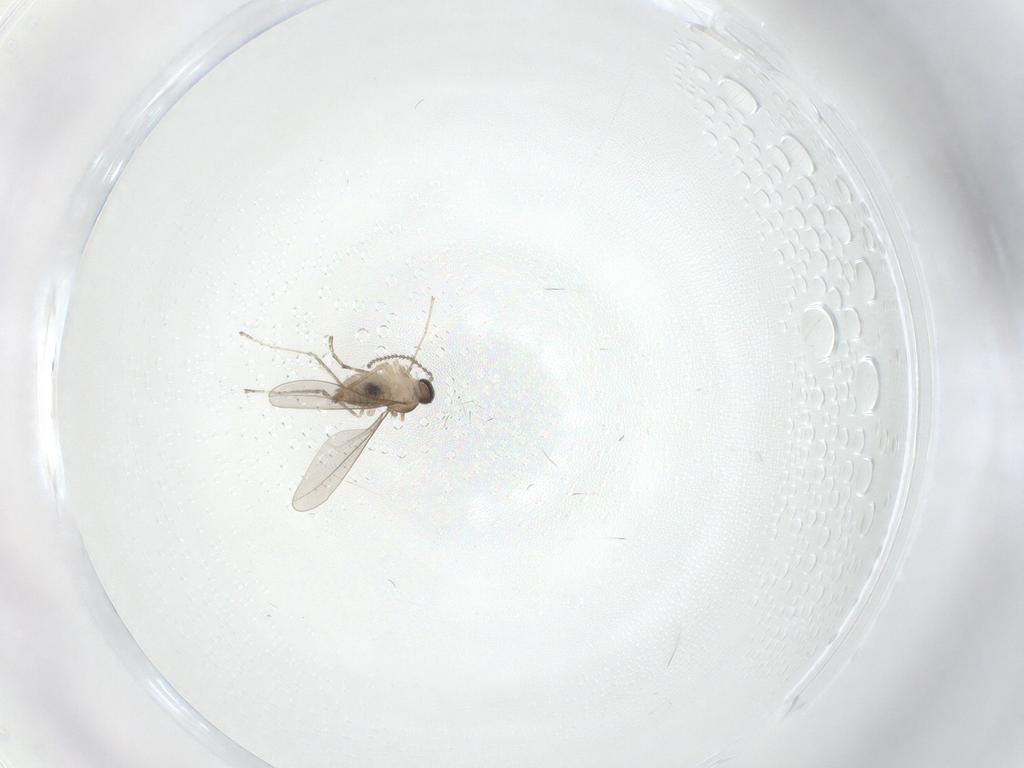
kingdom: Animalia
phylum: Arthropoda
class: Insecta
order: Diptera
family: Cecidomyiidae
